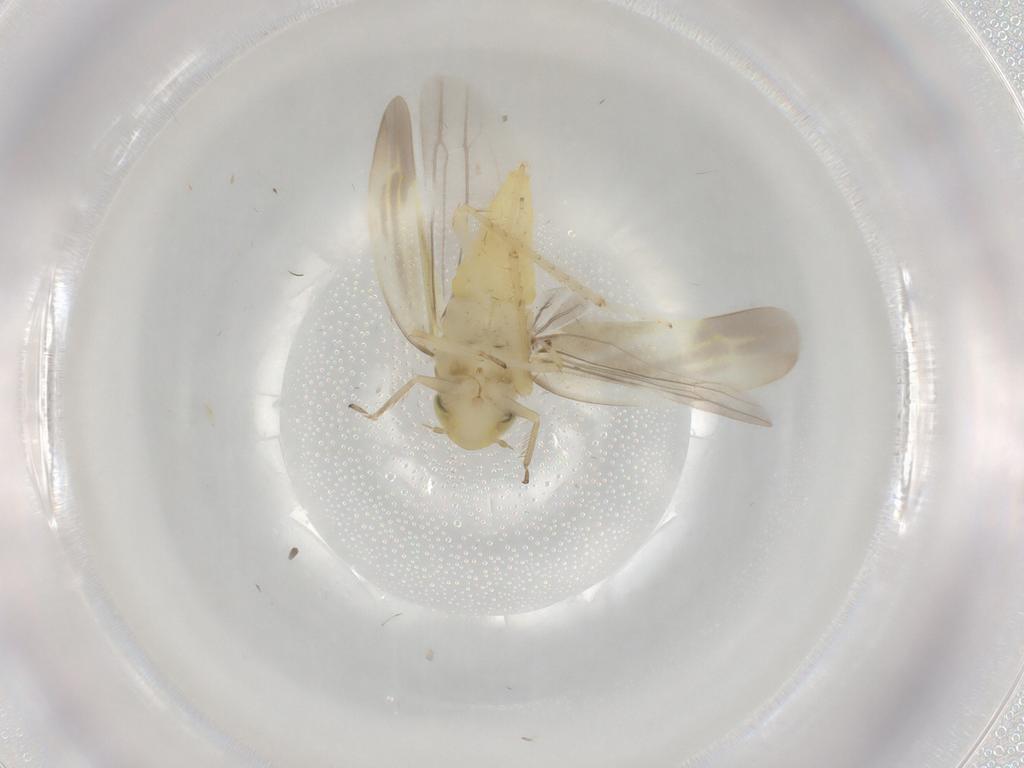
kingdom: Animalia
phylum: Arthropoda
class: Insecta
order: Hemiptera
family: Cicadellidae
